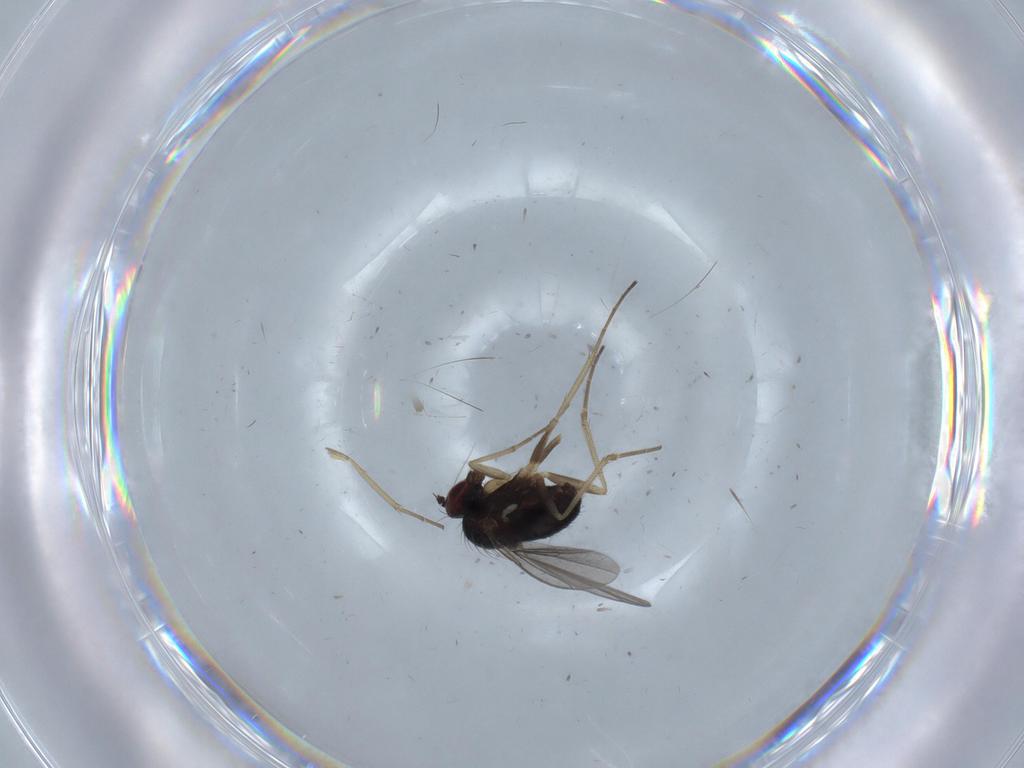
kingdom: Animalia
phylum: Arthropoda
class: Insecta
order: Diptera
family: Dolichopodidae
